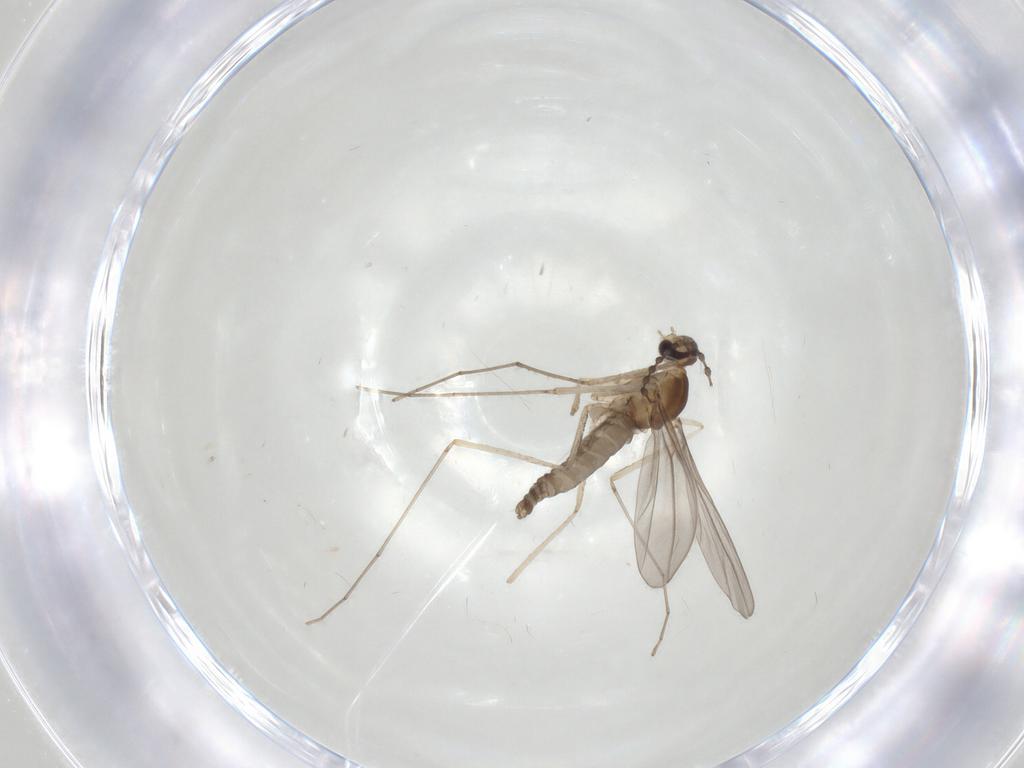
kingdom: Animalia
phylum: Arthropoda
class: Insecta
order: Diptera
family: Cecidomyiidae
